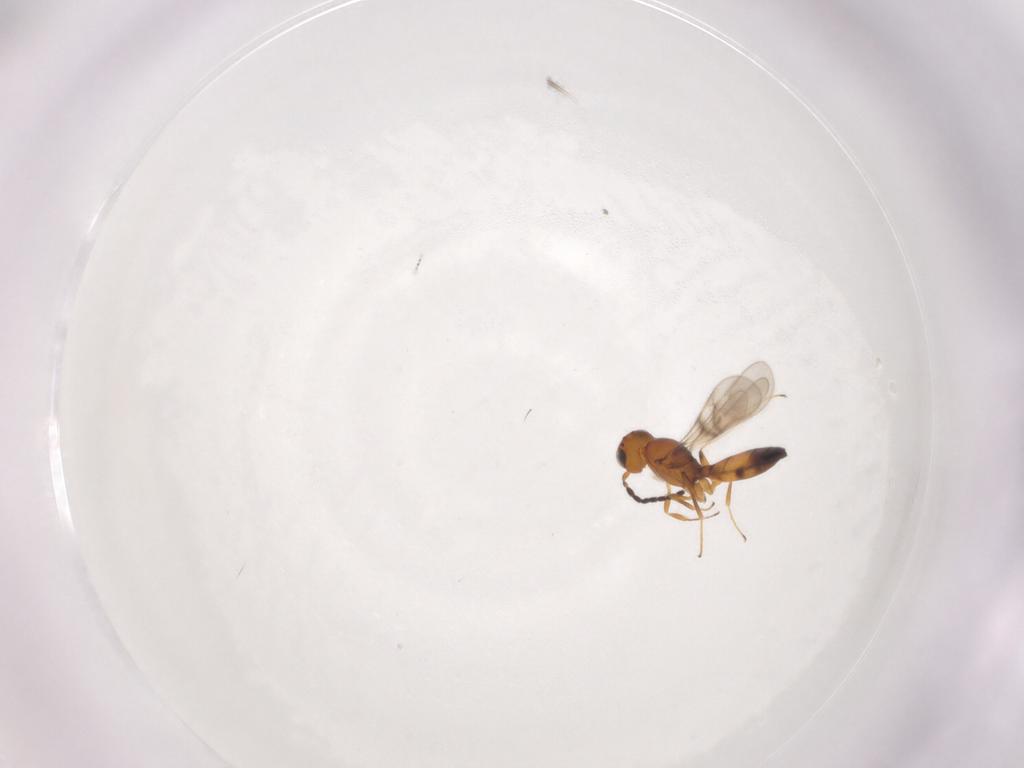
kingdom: Animalia
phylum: Arthropoda
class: Insecta
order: Hymenoptera
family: Scelionidae
